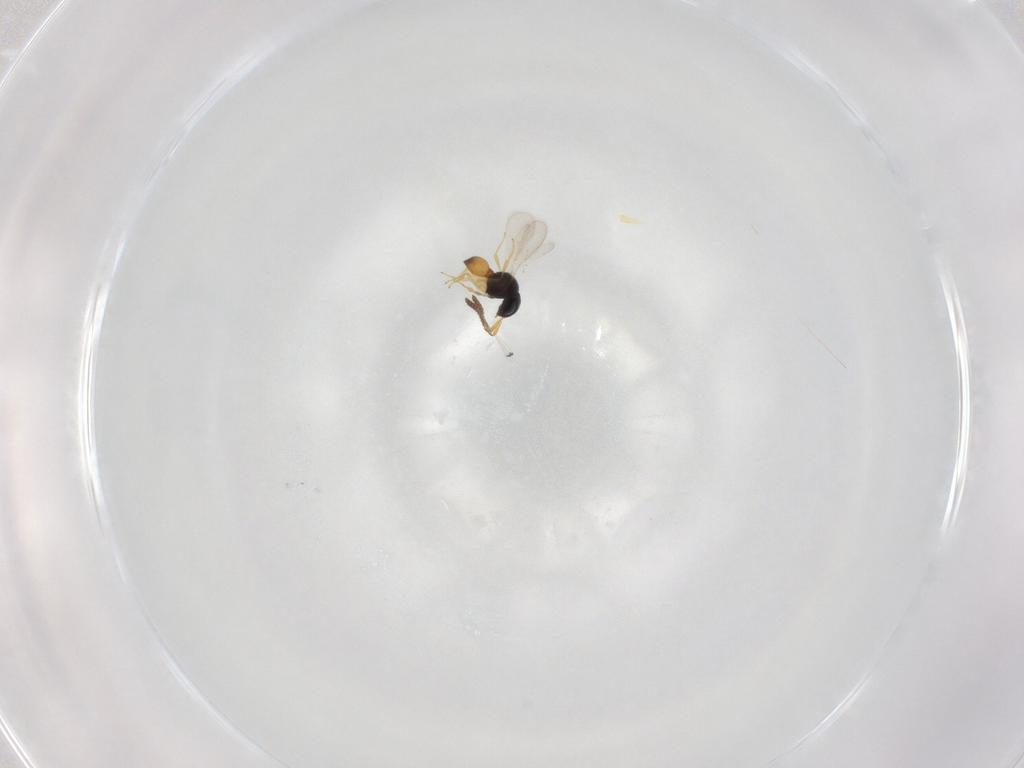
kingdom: Animalia
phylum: Arthropoda
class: Insecta
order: Hymenoptera
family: Scelionidae
